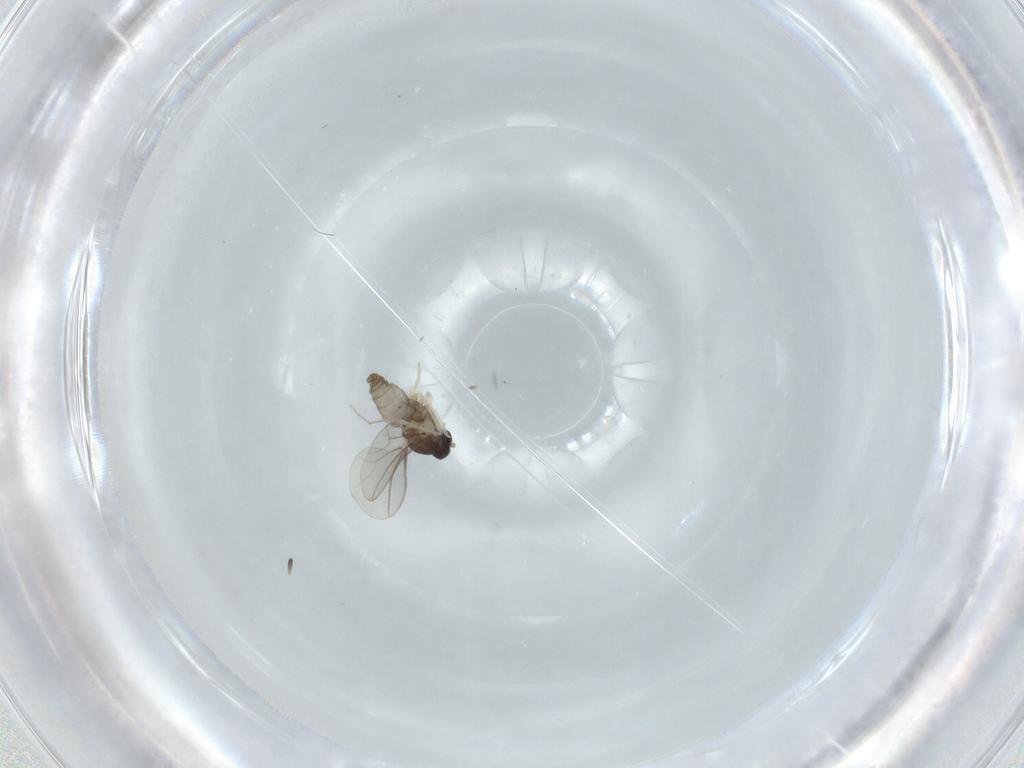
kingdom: Animalia
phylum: Arthropoda
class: Insecta
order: Diptera
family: Cecidomyiidae
